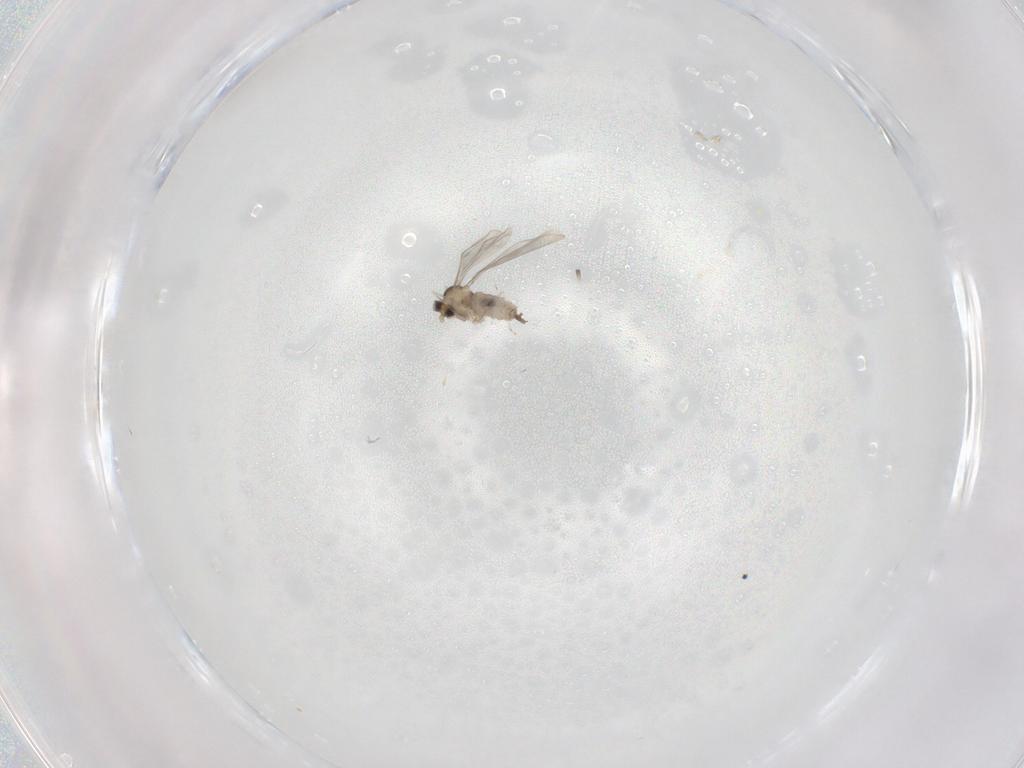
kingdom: Animalia
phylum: Arthropoda
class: Insecta
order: Diptera
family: Cecidomyiidae
